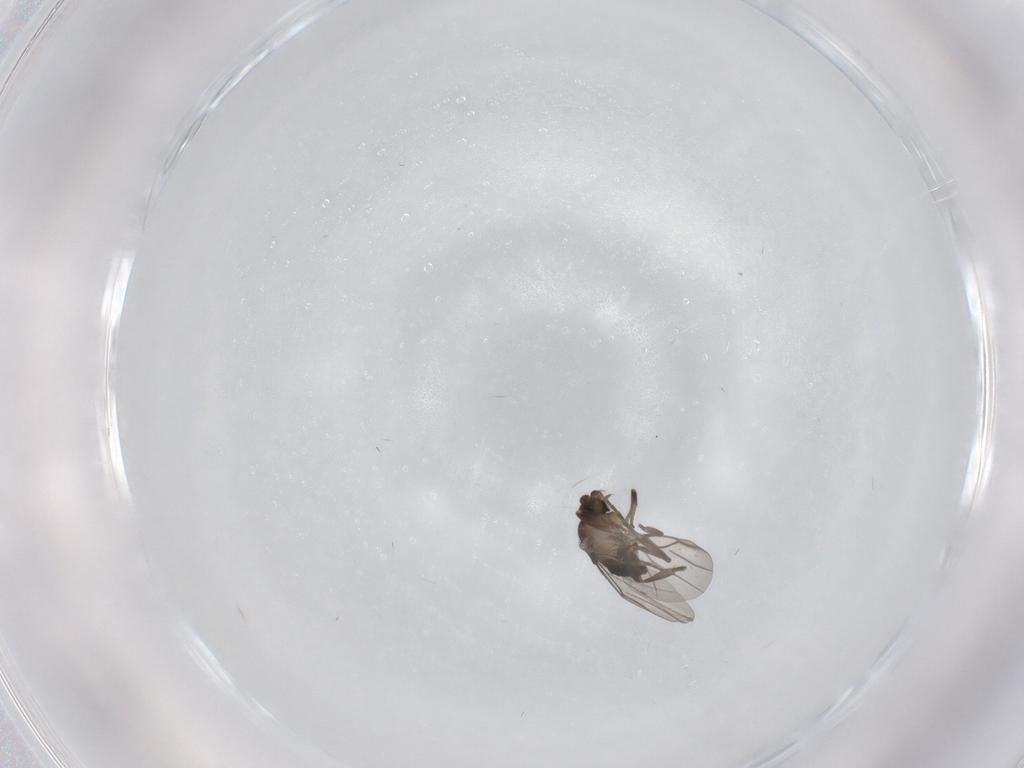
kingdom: Animalia
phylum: Arthropoda
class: Insecta
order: Diptera
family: Phoridae
